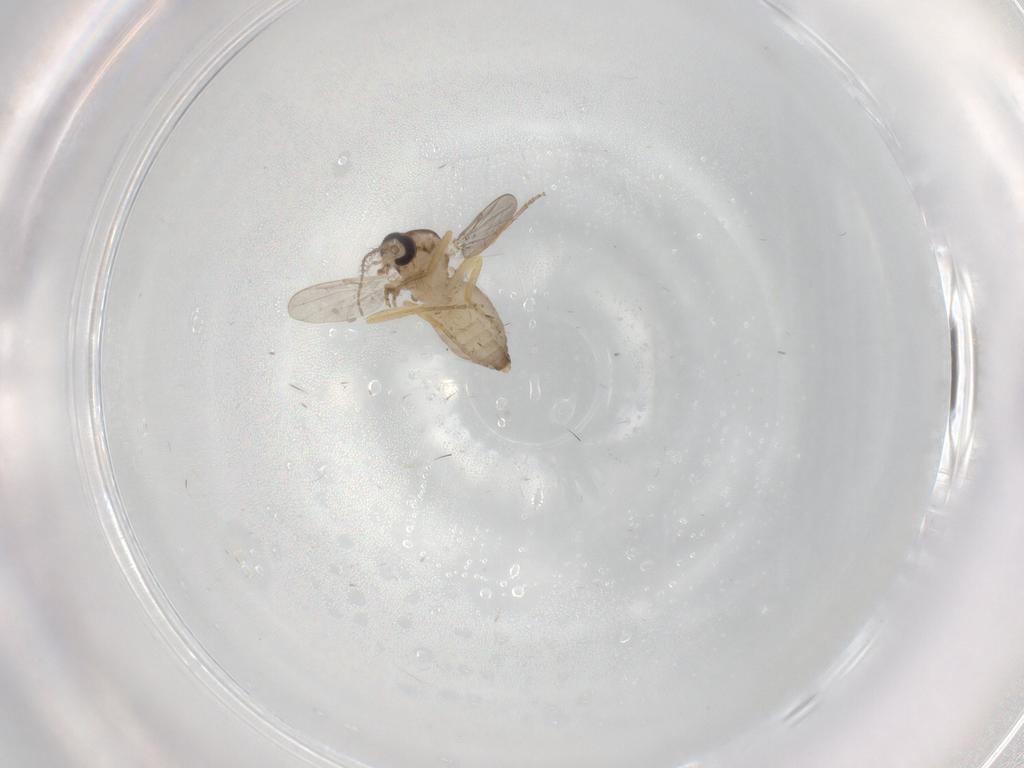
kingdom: Animalia
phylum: Arthropoda
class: Insecta
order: Diptera
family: Dolichopodidae
